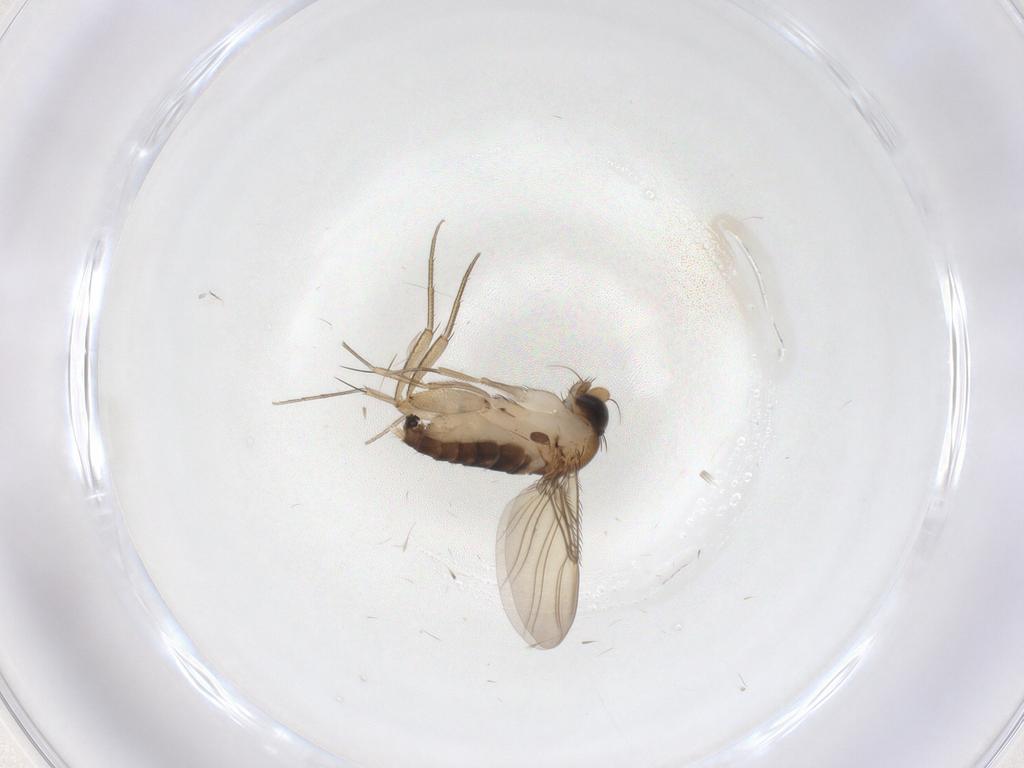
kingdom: Animalia
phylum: Arthropoda
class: Insecta
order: Diptera
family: Phoridae
